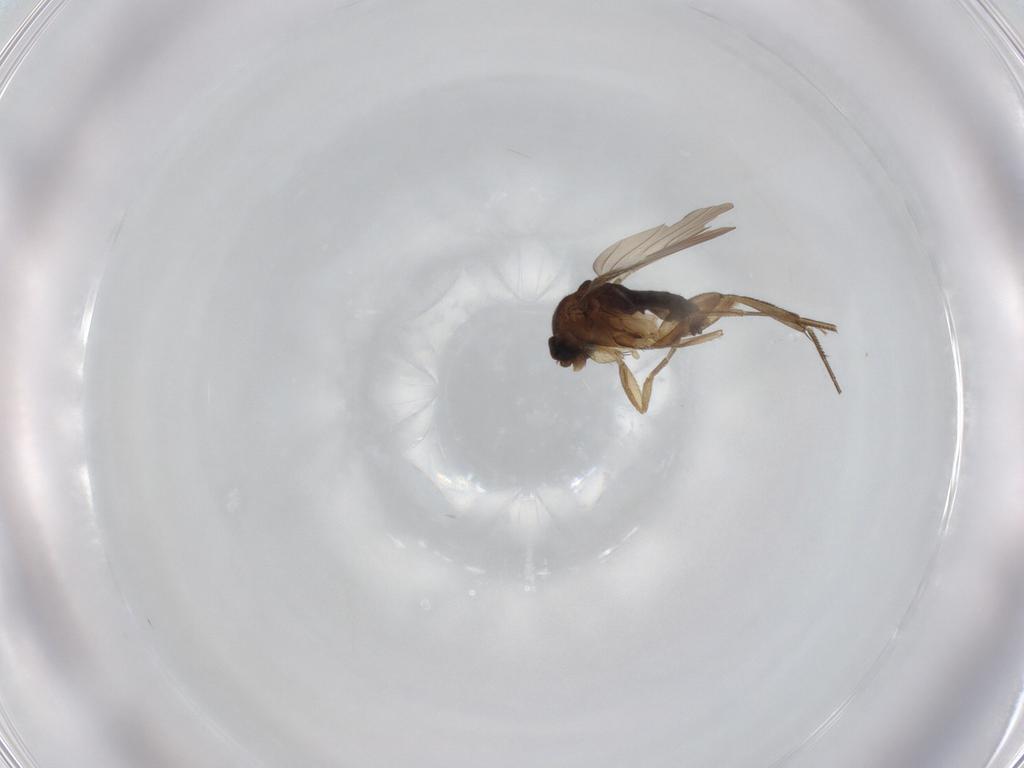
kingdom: Animalia
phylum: Arthropoda
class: Insecta
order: Diptera
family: Phoridae
